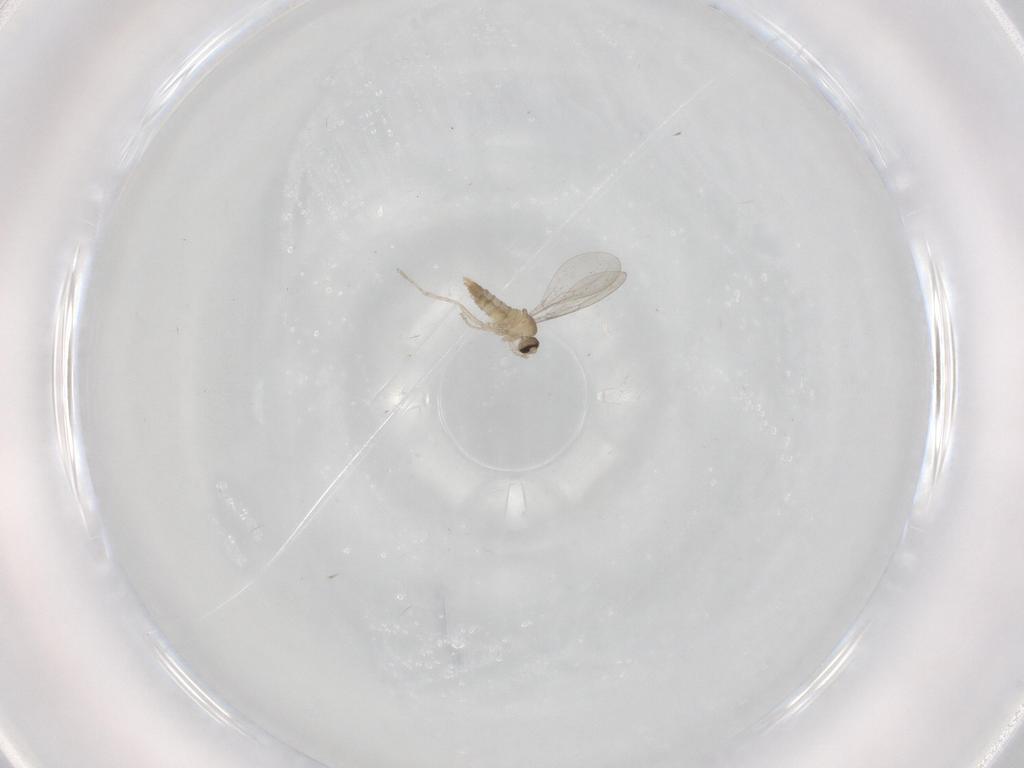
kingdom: Animalia
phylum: Arthropoda
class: Insecta
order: Diptera
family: Cecidomyiidae
